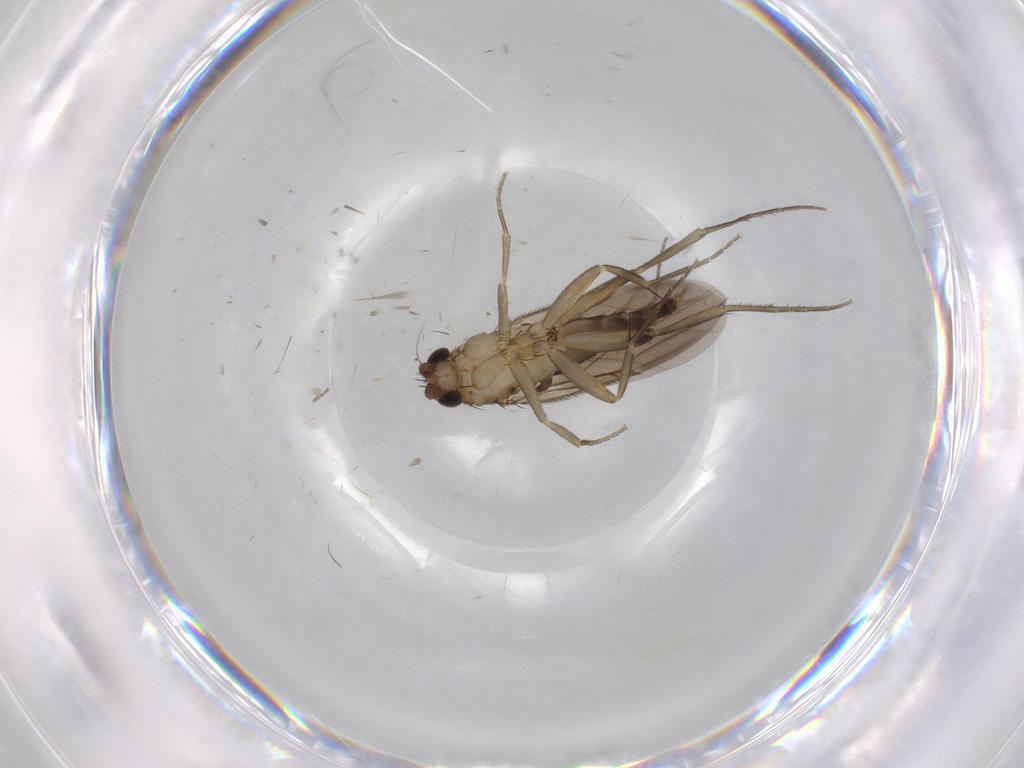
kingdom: Animalia
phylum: Arthropoda
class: Insecta
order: Diptera
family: Phoridae
